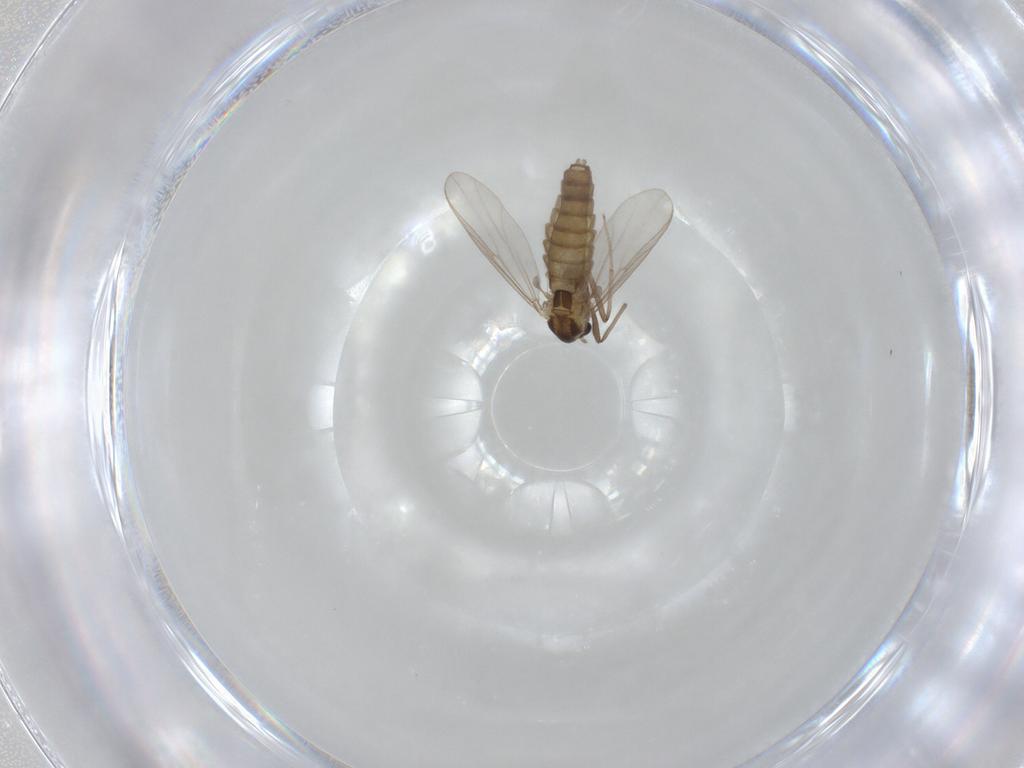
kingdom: Animalia
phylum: Arthropoda
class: Insecta
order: Diptera
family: Chironomidae
